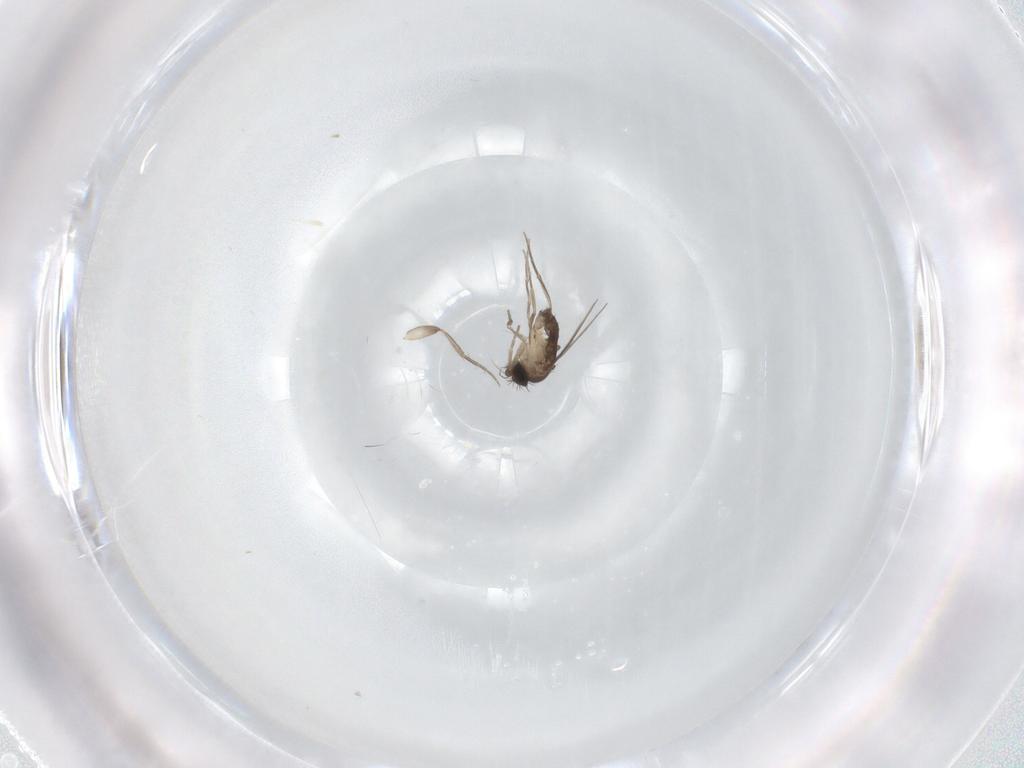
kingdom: Animalia
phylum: Arthropoda
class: Insecta
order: Diptera
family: Phoridae
